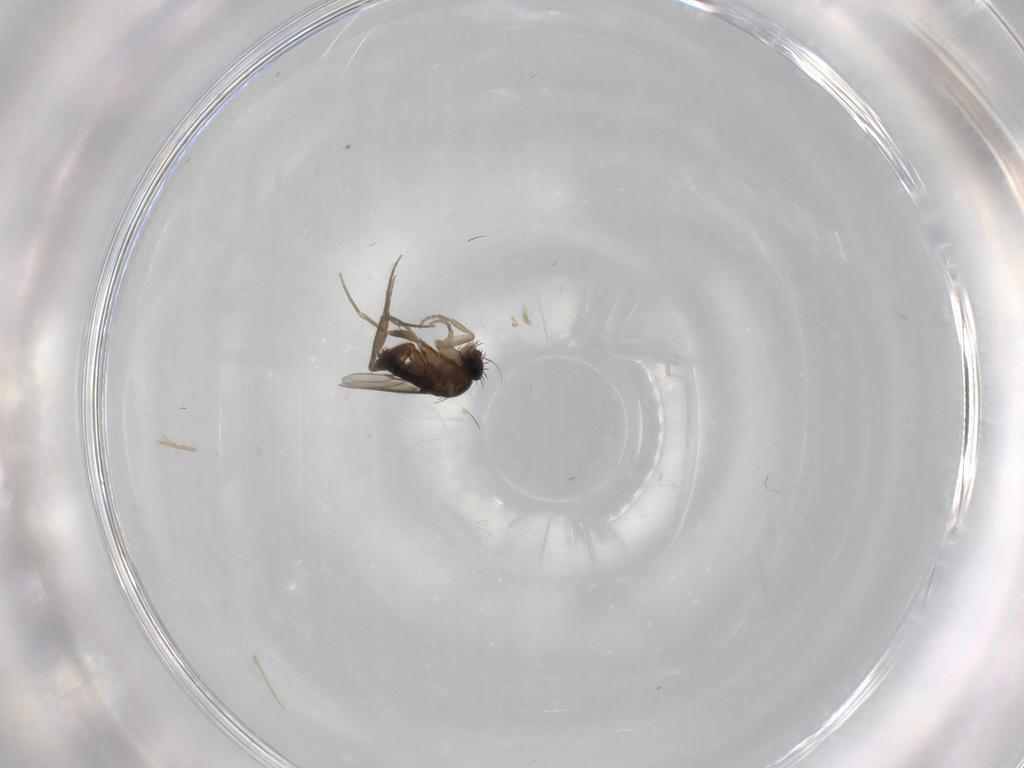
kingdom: Animalia
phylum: Arthropoda
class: Insecta
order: Diptera
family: Phoridae
